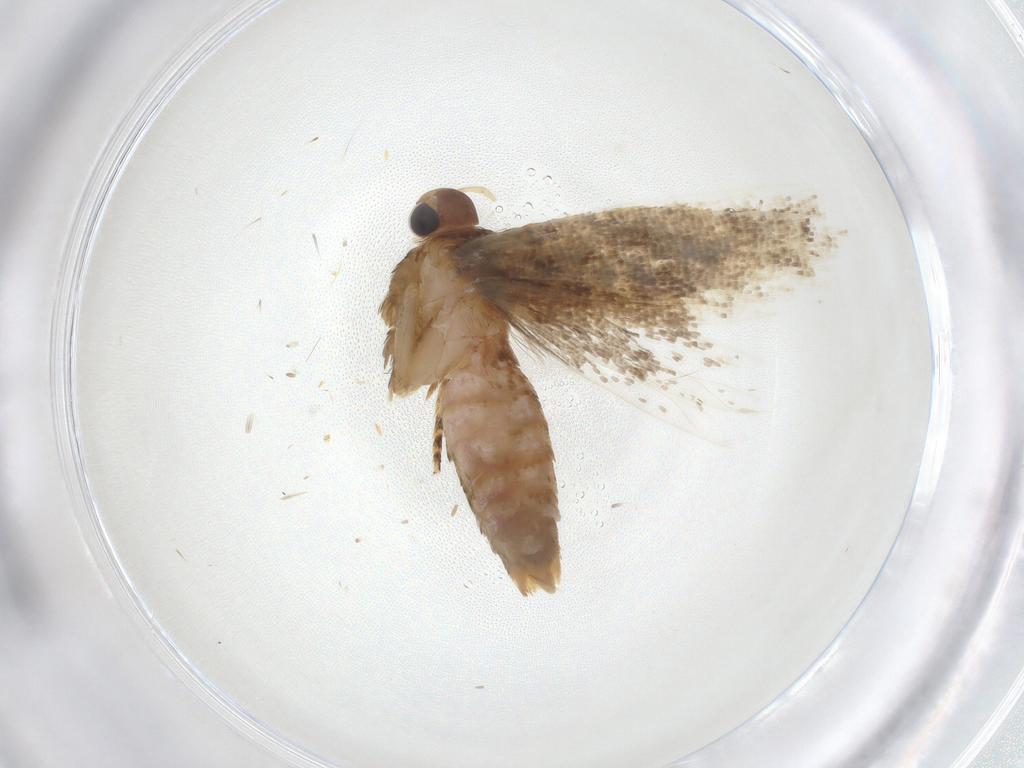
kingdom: Animalia
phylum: Arthropoda
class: Insecta
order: Lepidoptera
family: Gelechiidae
